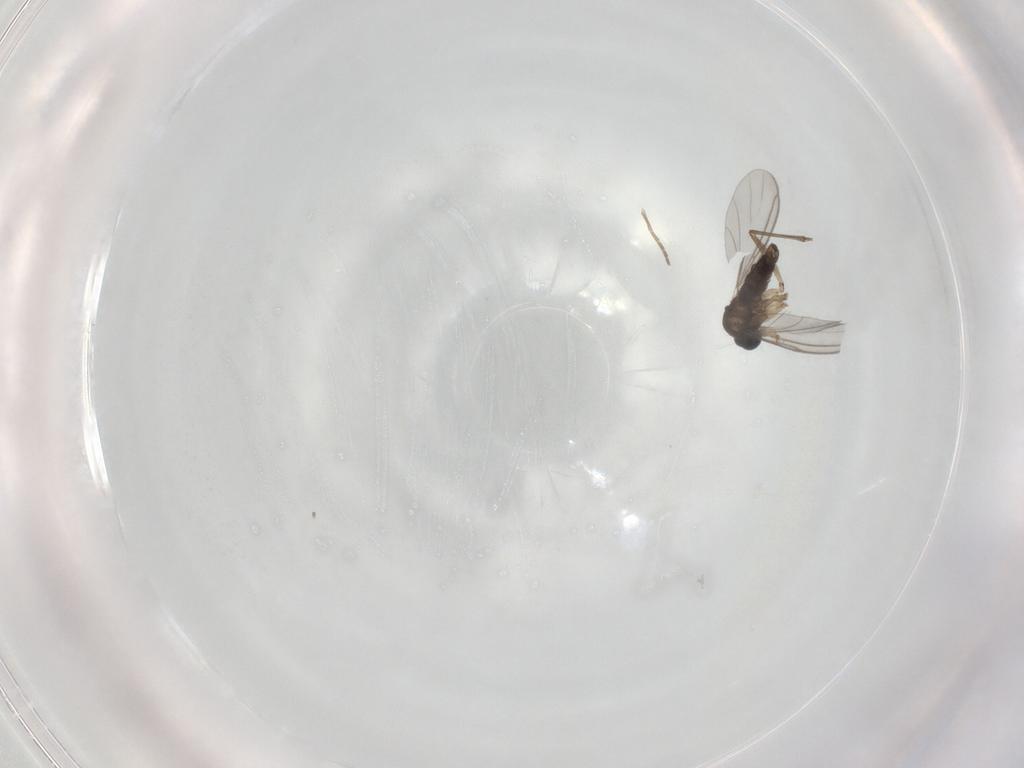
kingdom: Animalia
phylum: Arthropoda
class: Insecta
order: Diptera
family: Sciaridae
